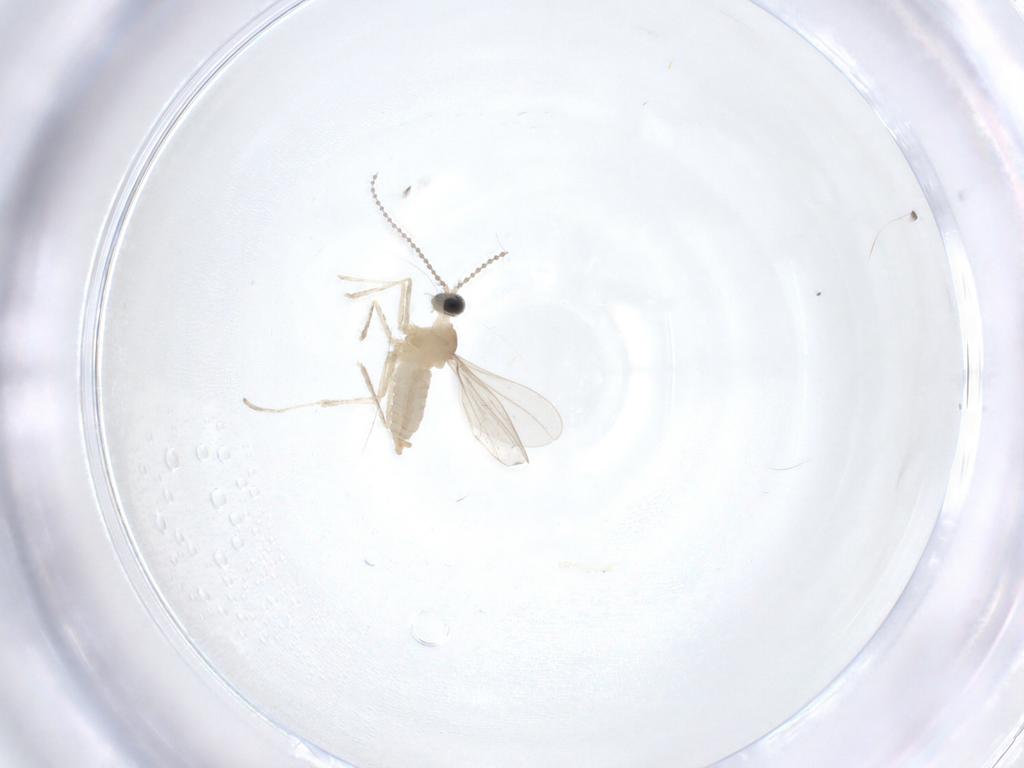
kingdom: Animalia
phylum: Arthropoda
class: Insecta
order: Diptera
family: Cecidomyiidae
